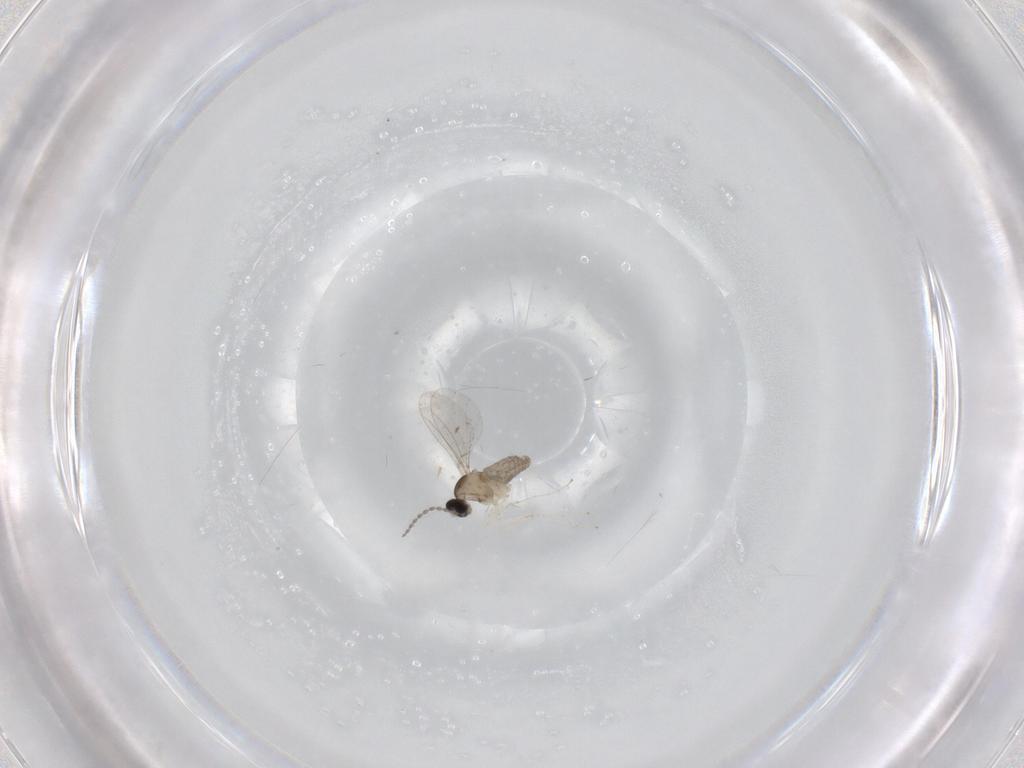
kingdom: Animalia
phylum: Arthropoda
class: Insecta
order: Diptera
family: Cecidomyiidae
